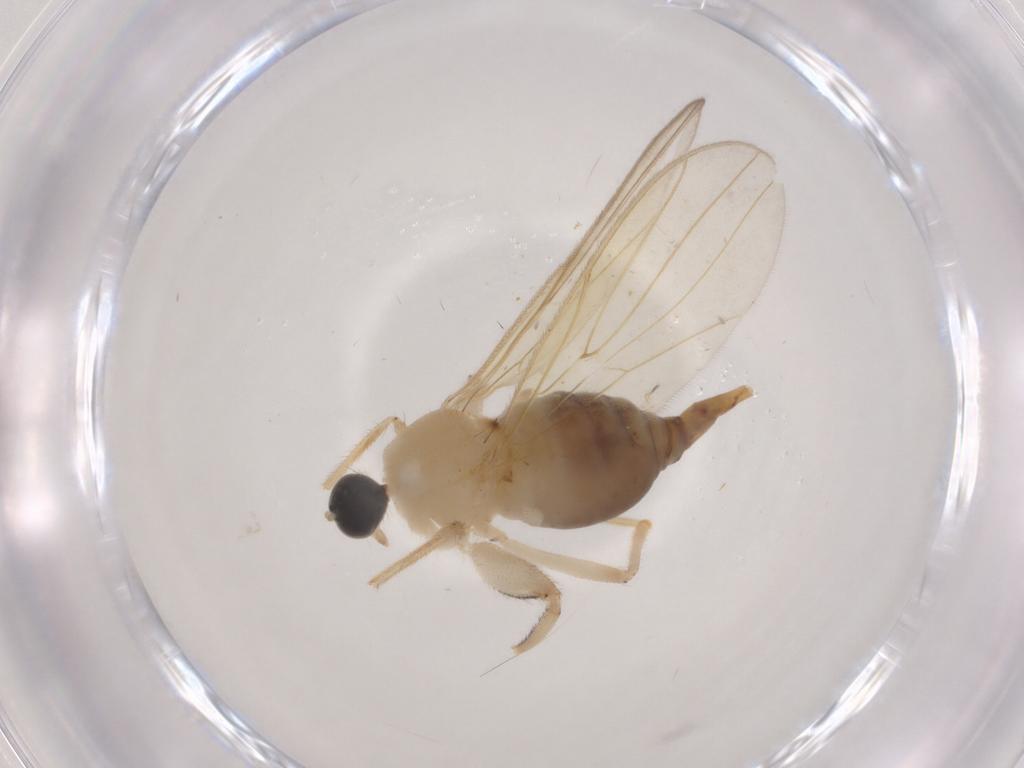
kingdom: Animalia
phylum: Arthropoda
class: Insecta
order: Diptera
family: Hybotidae
